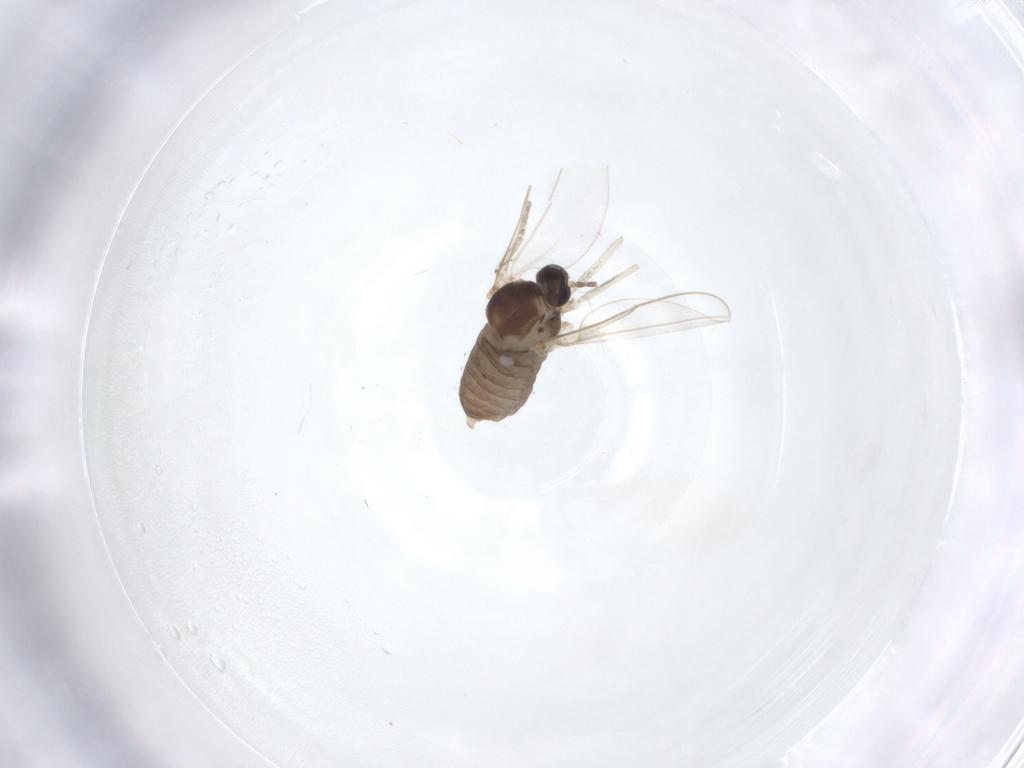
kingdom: Animalia
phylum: Arthropoda
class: Insecta
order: Diptera
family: Cecidomyiidae
